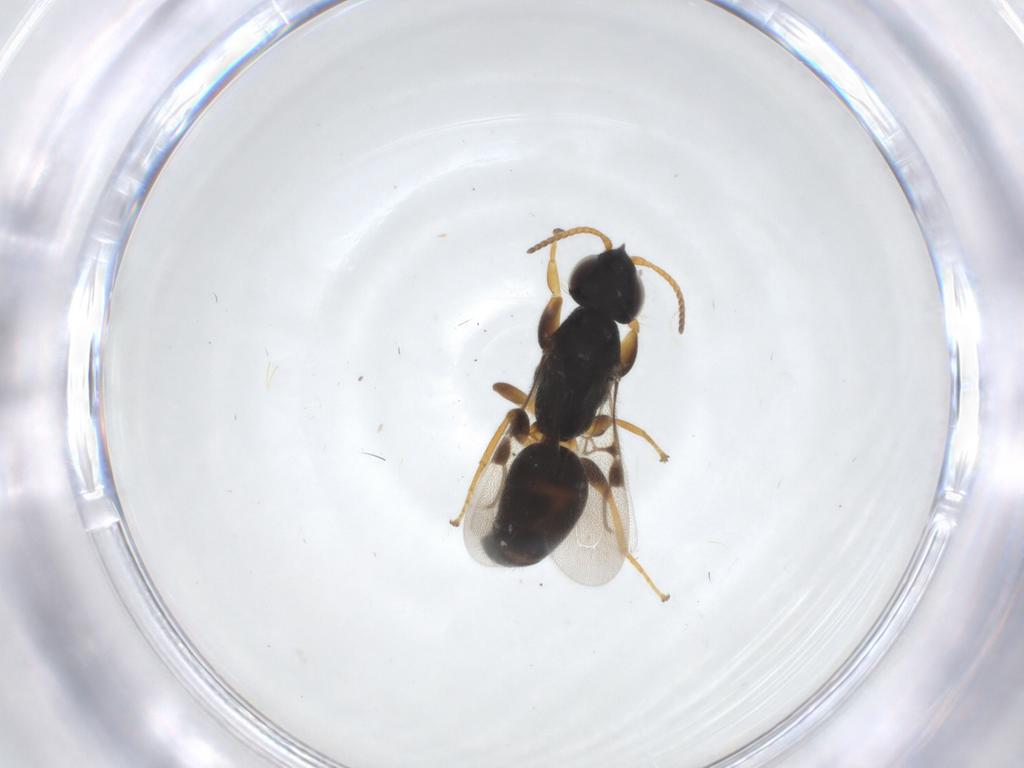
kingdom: Animalia
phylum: Arthropoda
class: Insecta
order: Hymenoptera
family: Bethylidae
